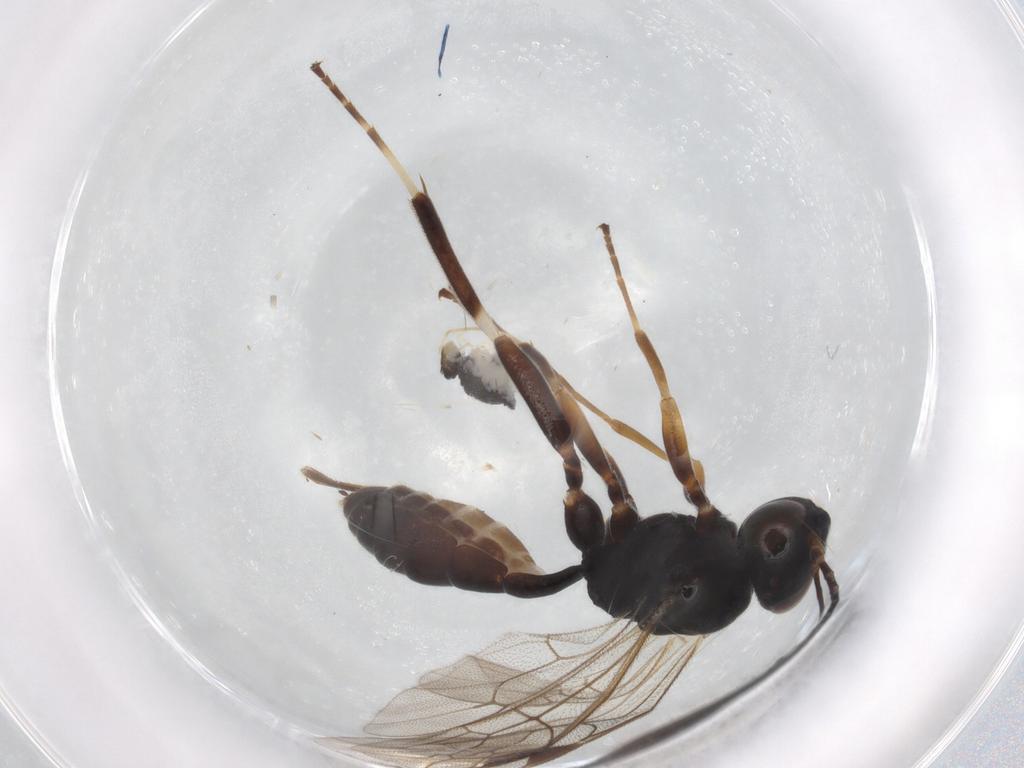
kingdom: Animalia
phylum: Arthropoda
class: Insecta
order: Hymenoptera
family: Ichneumonidae
